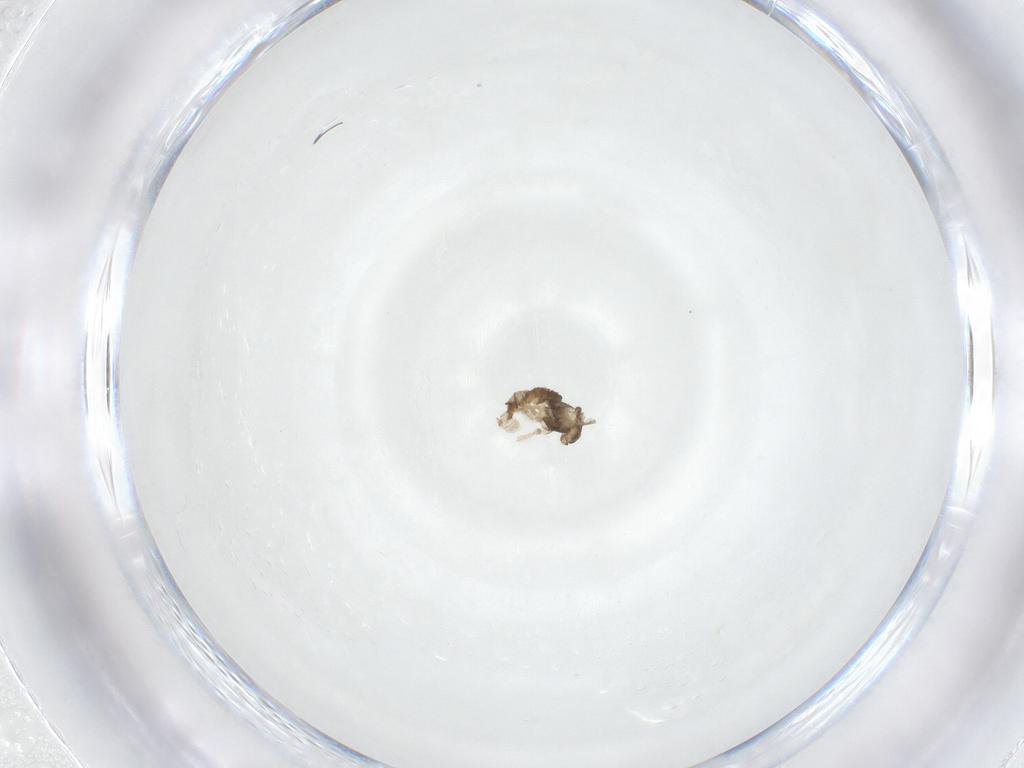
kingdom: Animalia
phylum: Arthropoda
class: Insecta
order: Diptera
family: Cecidomyiidae
